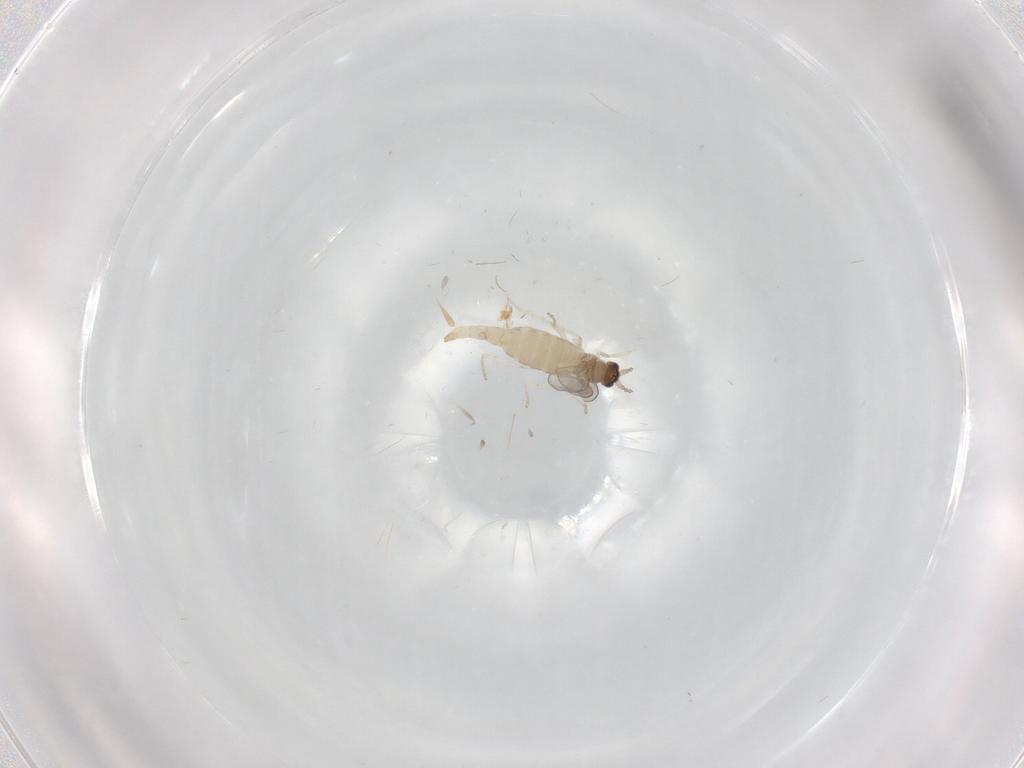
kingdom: Animalia
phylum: Arthropoda
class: Insecta
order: Diptera
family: Cecidomyiidae
